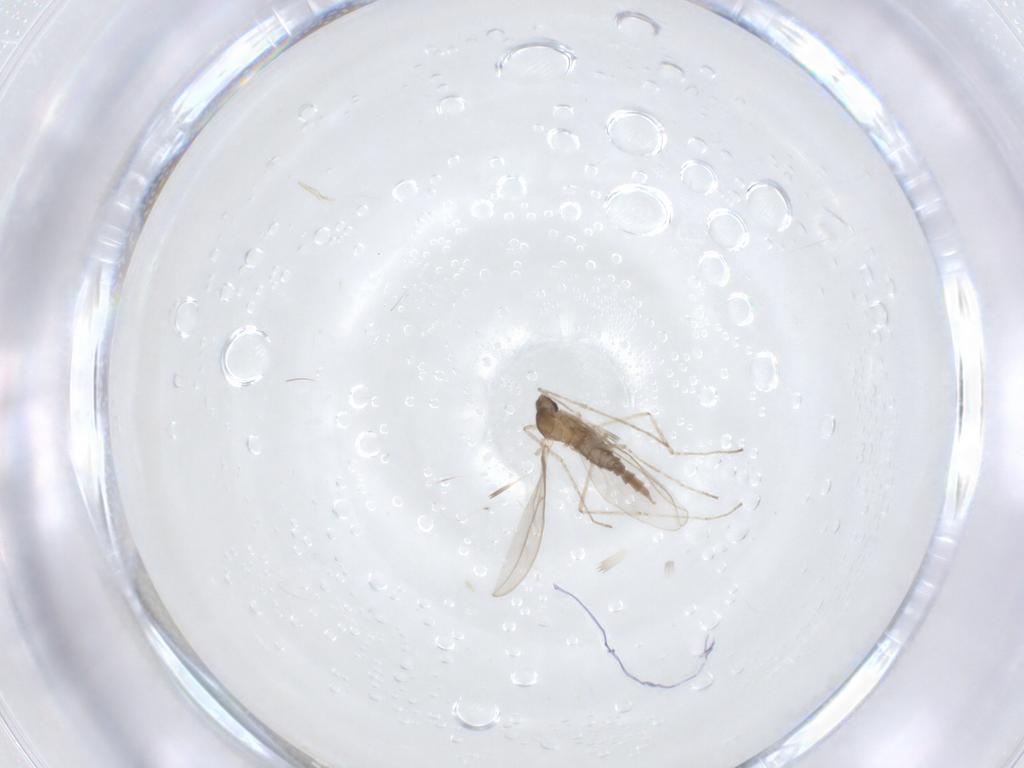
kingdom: Animalia
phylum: Arthropoda
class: Insecta
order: Diptera
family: Cecidomyiidae
